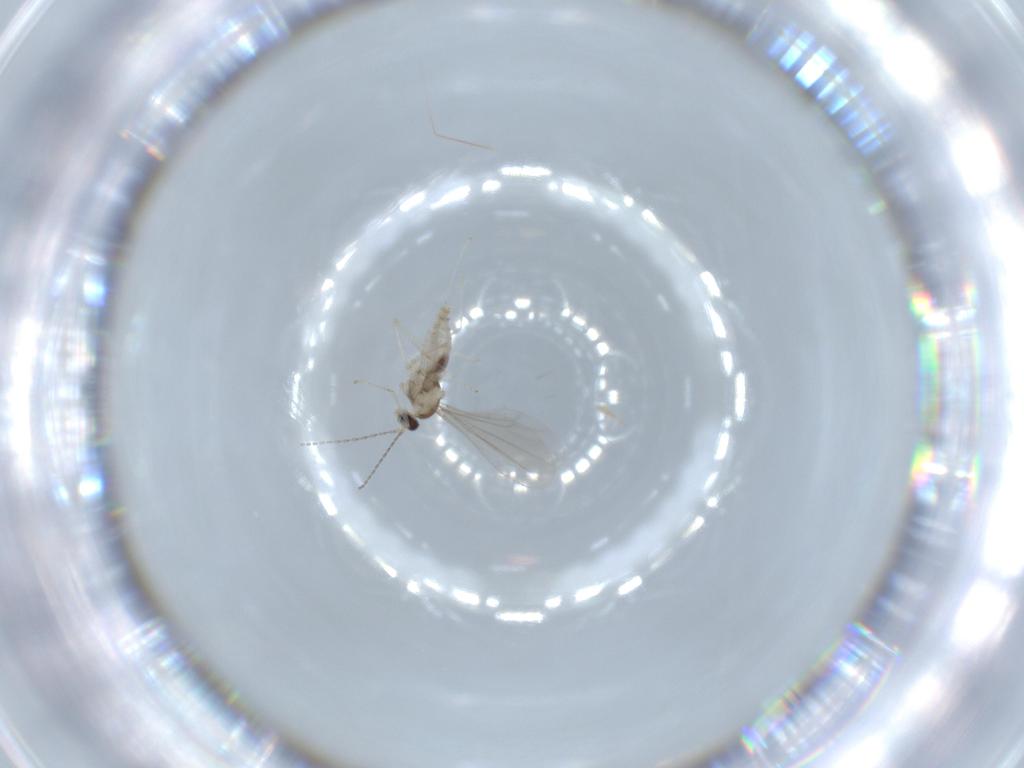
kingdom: Animalia
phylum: Arthropoda
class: Insecta
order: Diptera
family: Cecidomyiidae
